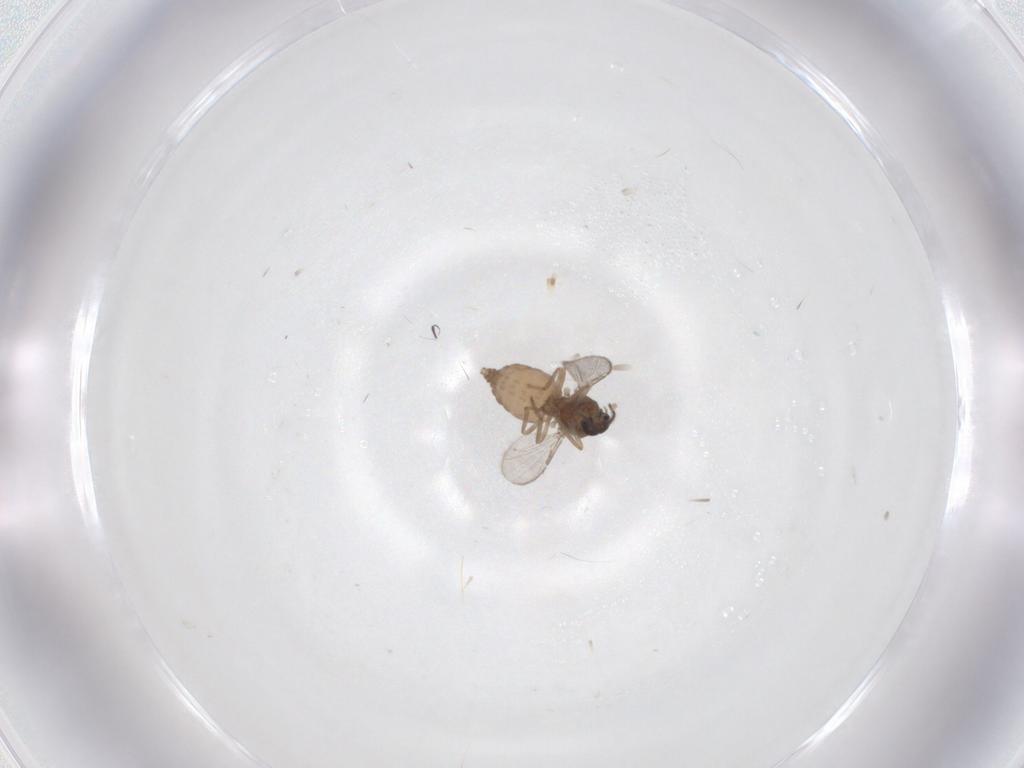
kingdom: Animalia
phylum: Arthropoda
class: Insecta
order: Diptera
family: Ceratopogonidae
